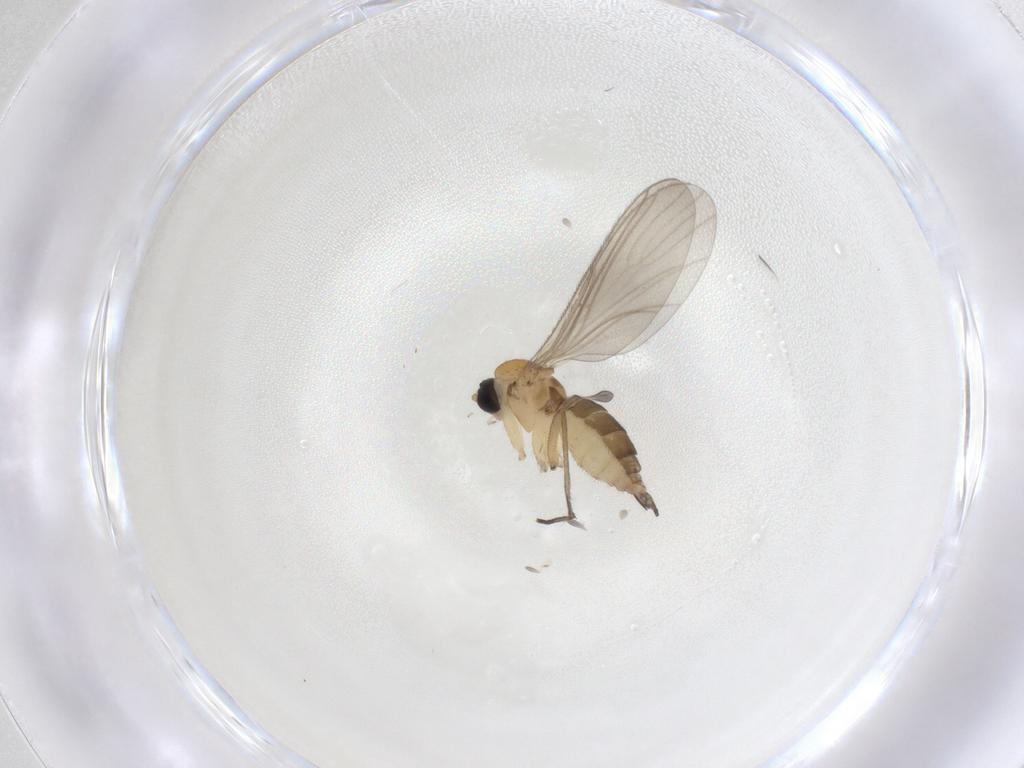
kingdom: Animalia
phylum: Arthropoda
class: Insecta
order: Diptera
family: Sciaridae
